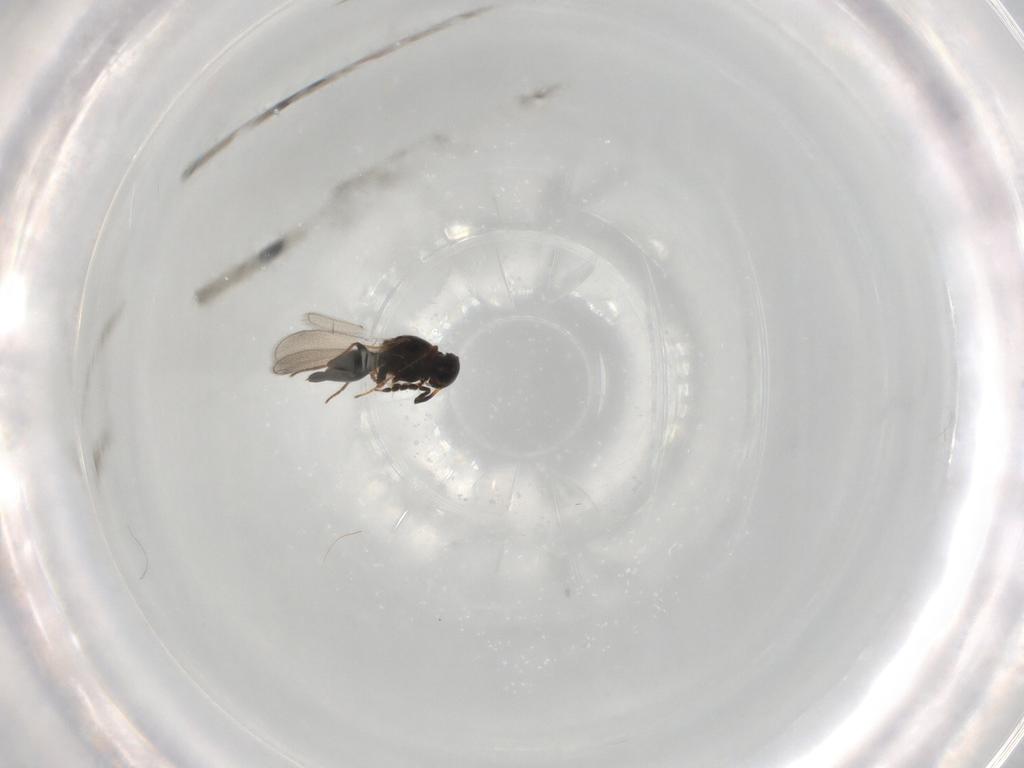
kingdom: Animalia
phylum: Arthropoda
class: Insecta
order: Hymenoptera
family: Platygastridae
